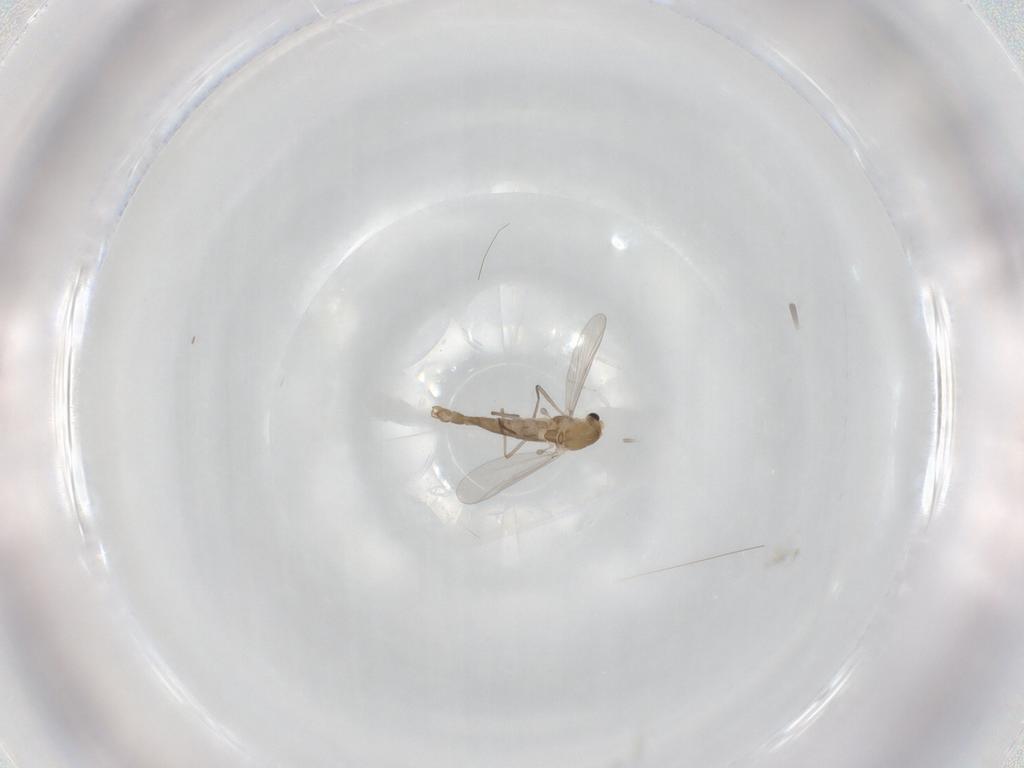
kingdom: Animalia
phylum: Arthropoda
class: Insecta
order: Diptera
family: Chironomidae
